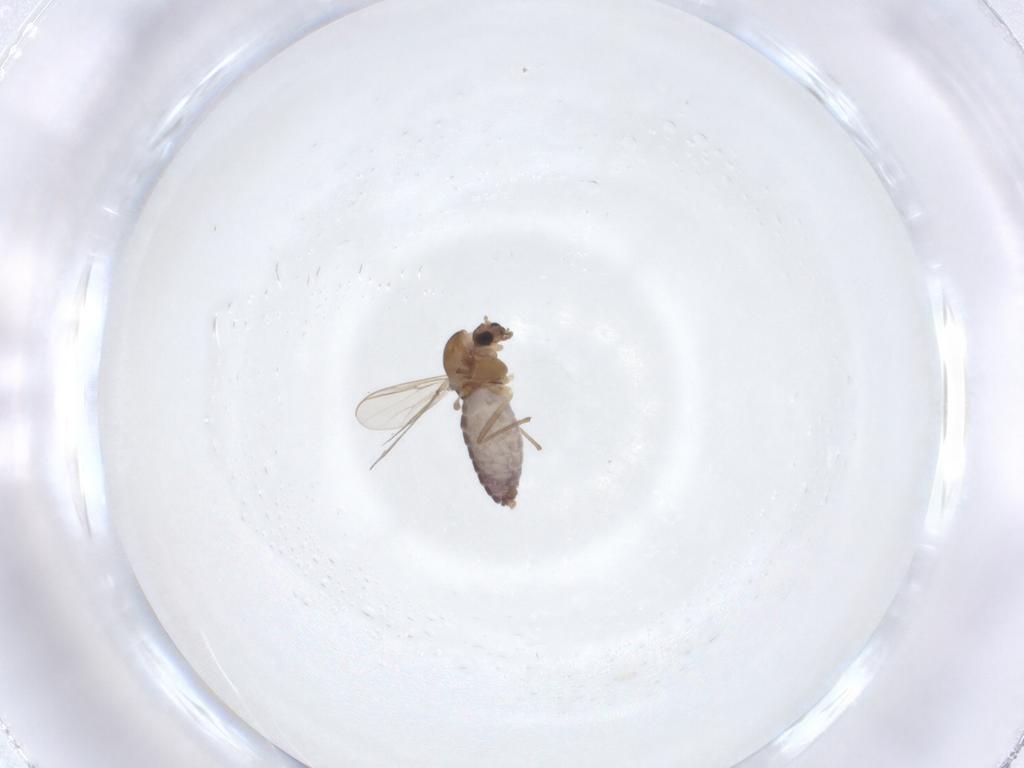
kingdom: Animalia
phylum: Arthropoda
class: Insecta
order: Diptera
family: Chironomidae
